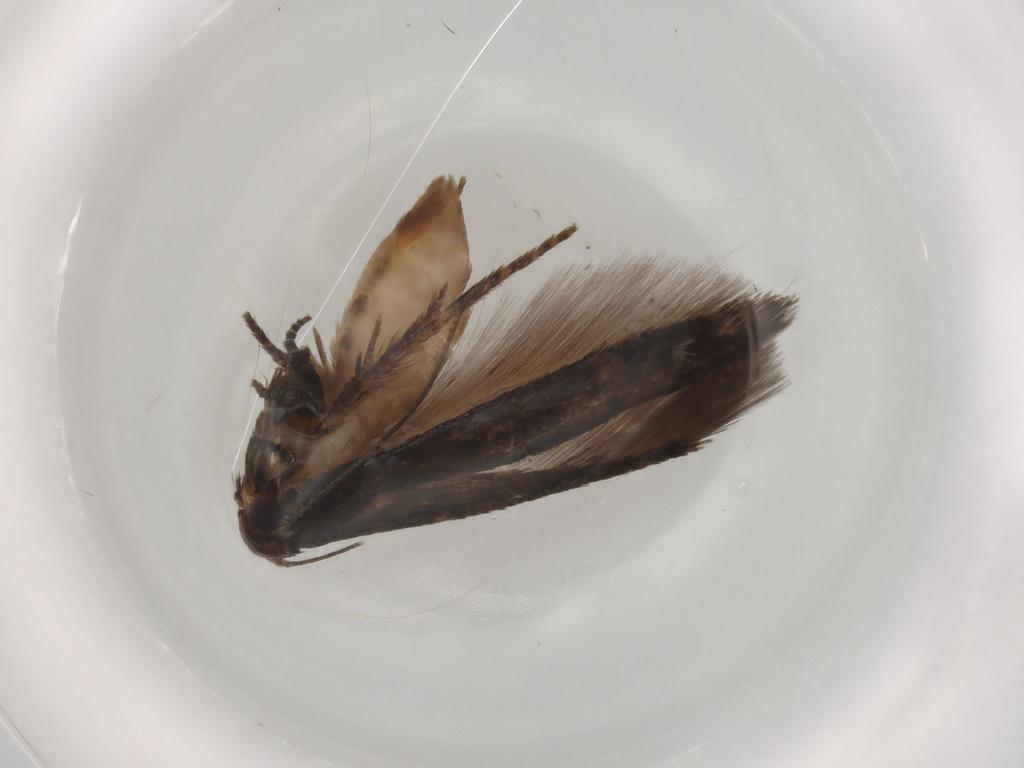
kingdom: Animalia
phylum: Arthropoda
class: Insecta
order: Lepidoptera
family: Cosmopterigidae
